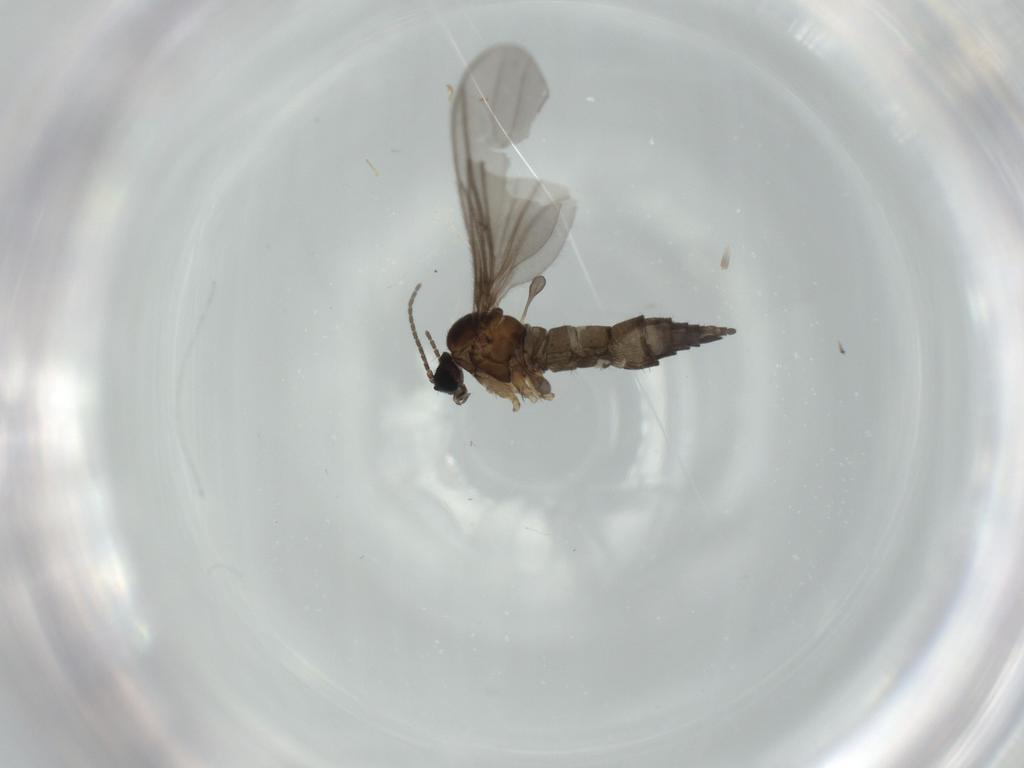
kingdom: Animalia
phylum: Arthropoda
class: Insecta
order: Diptera
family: Sciaridae
